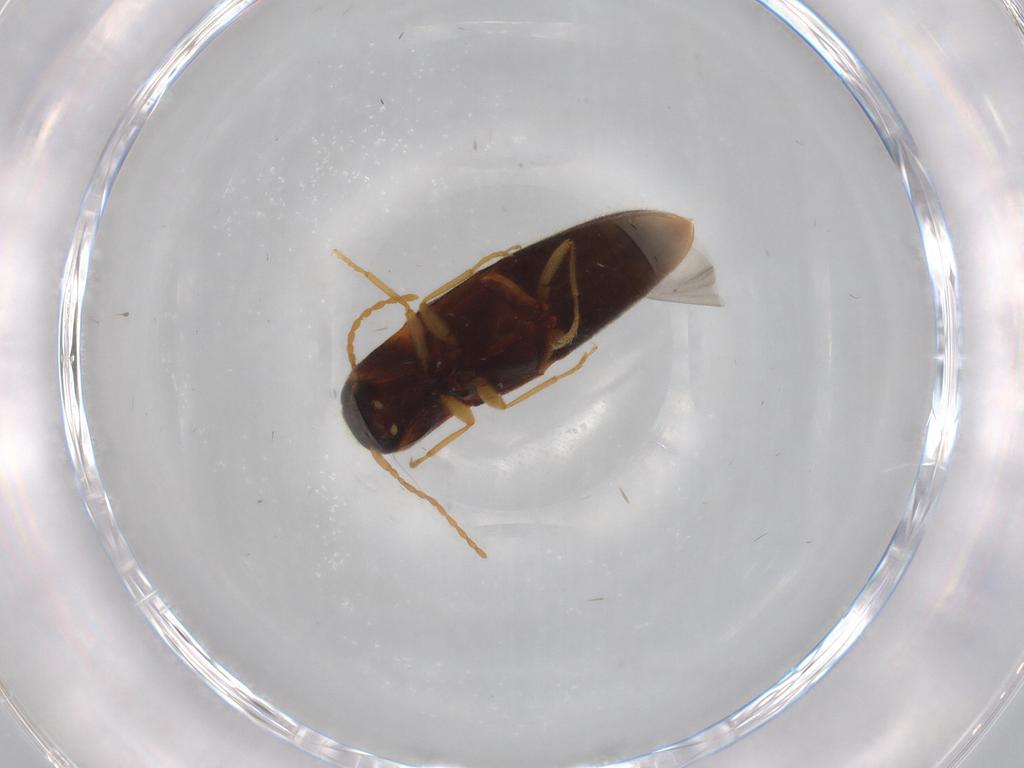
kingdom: Animalia
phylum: Arthropoda
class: Insecta
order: Coleoptera
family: Elateridae
